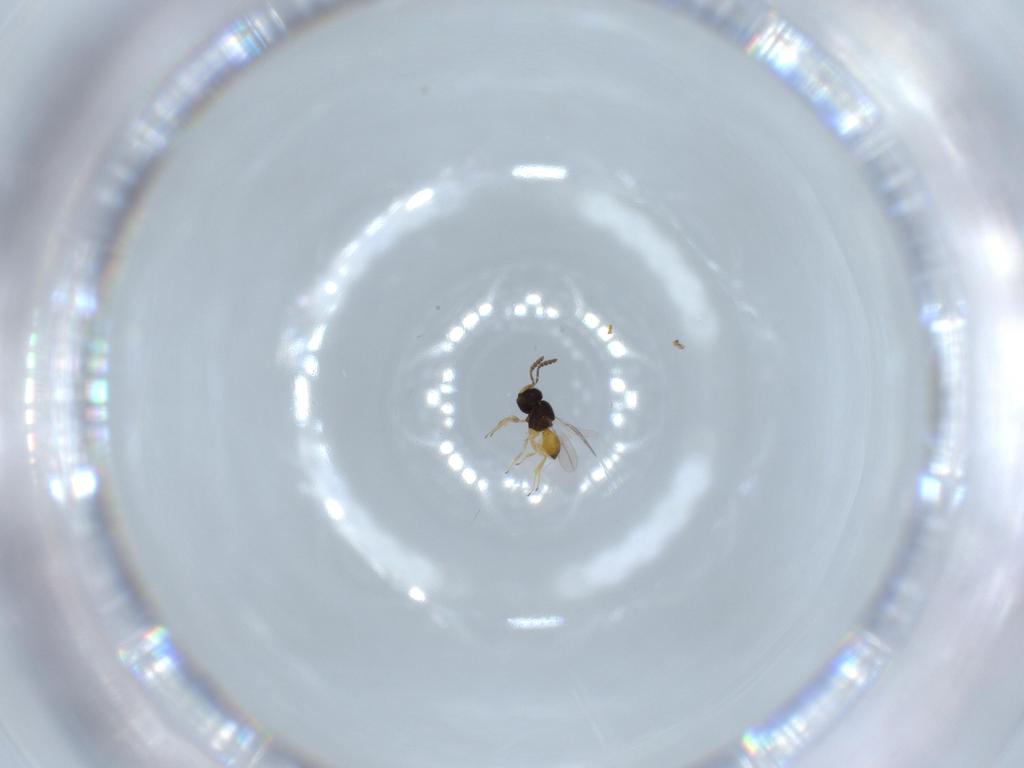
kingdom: Animalia
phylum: Arthropoda
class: Insecta
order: Hymenoptera
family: Scelionidae
